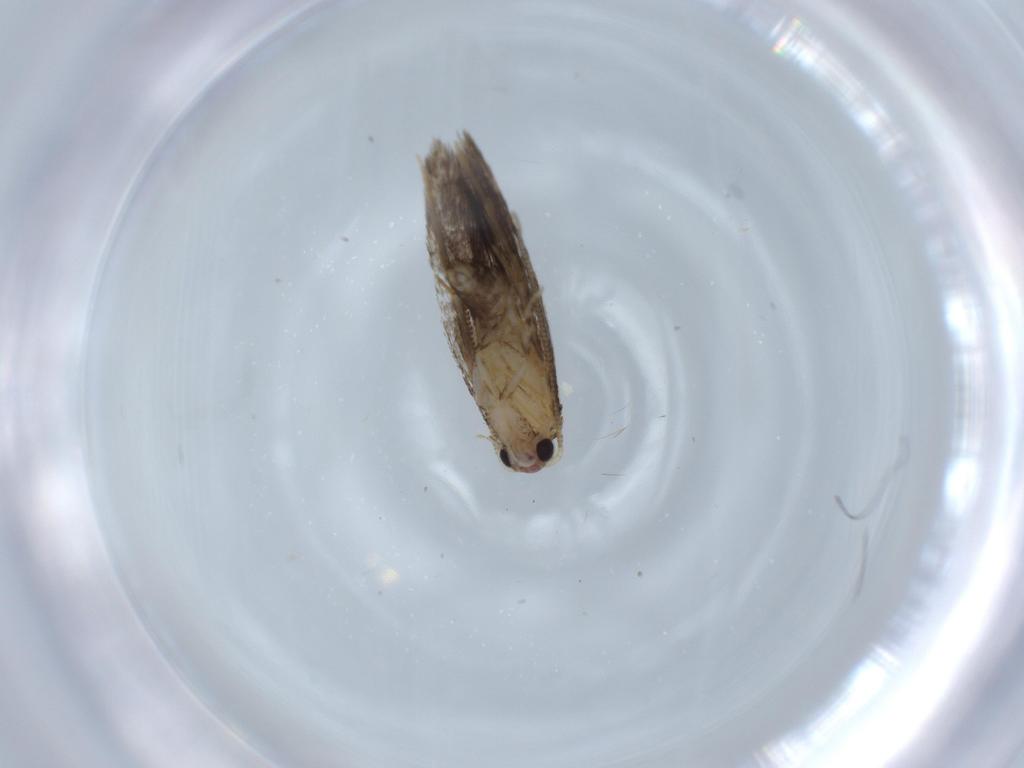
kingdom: Animalia
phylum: Arthropoda
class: Insecta
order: Lepidoptera
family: Tineidae
